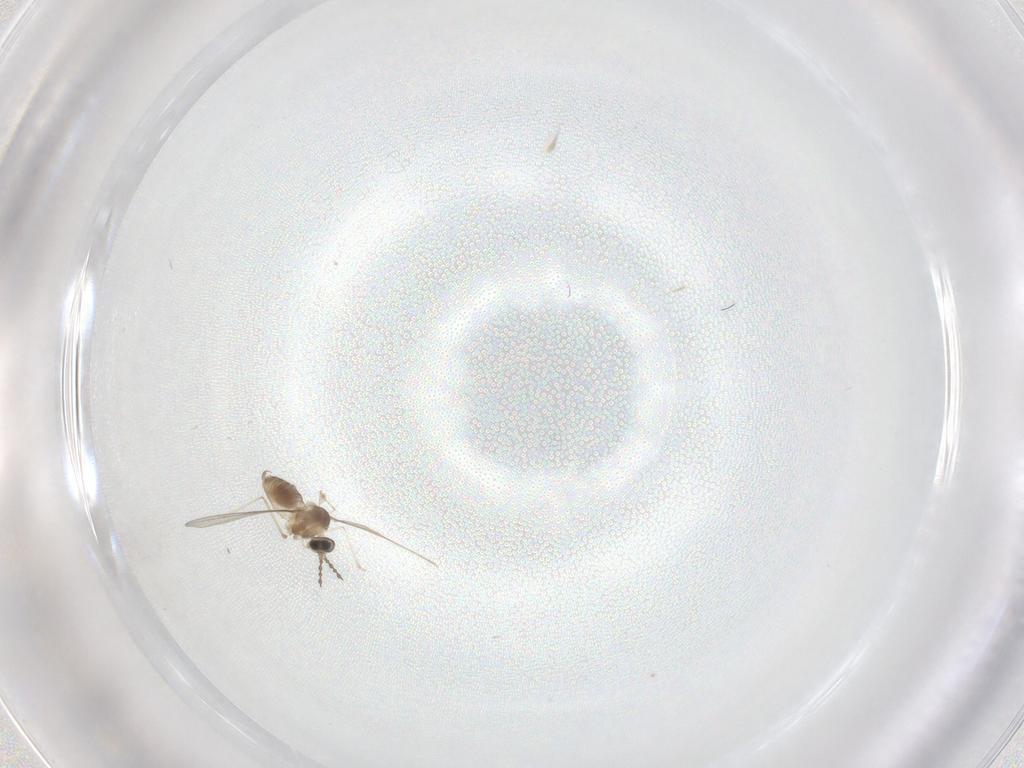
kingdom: Animalia
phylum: Arthropoda
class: Insecta
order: Diptera
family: Cecidomyiidae
